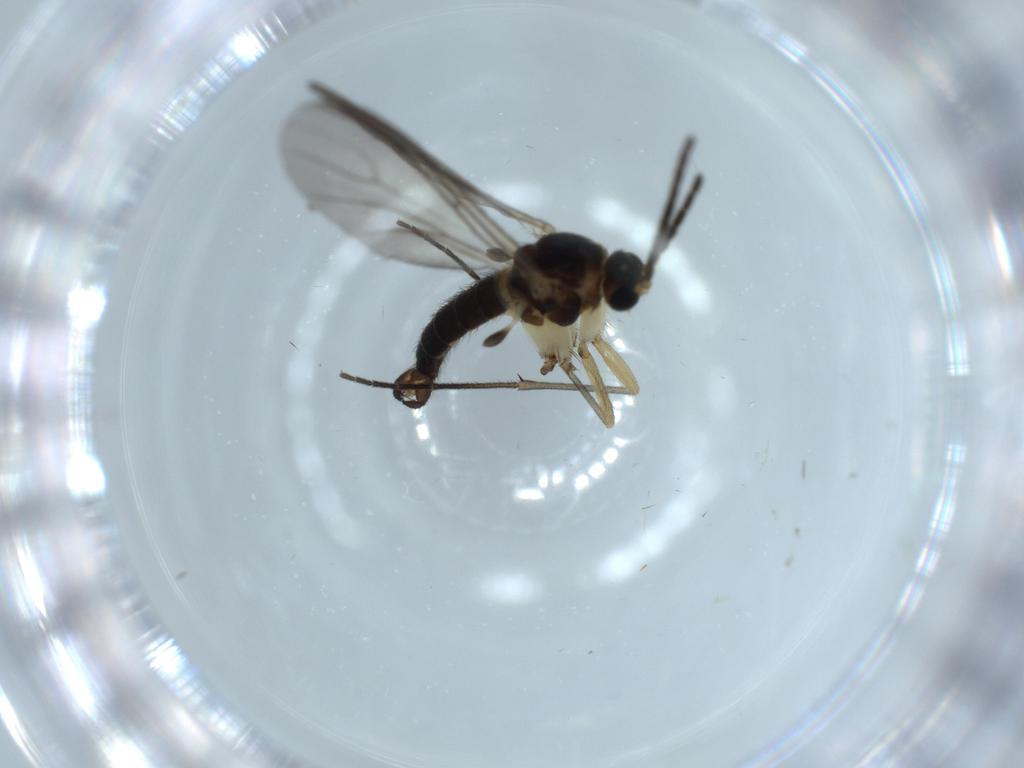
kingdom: Animalia
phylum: Arthropoda
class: Insecta
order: Diptera
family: Sciaridae
